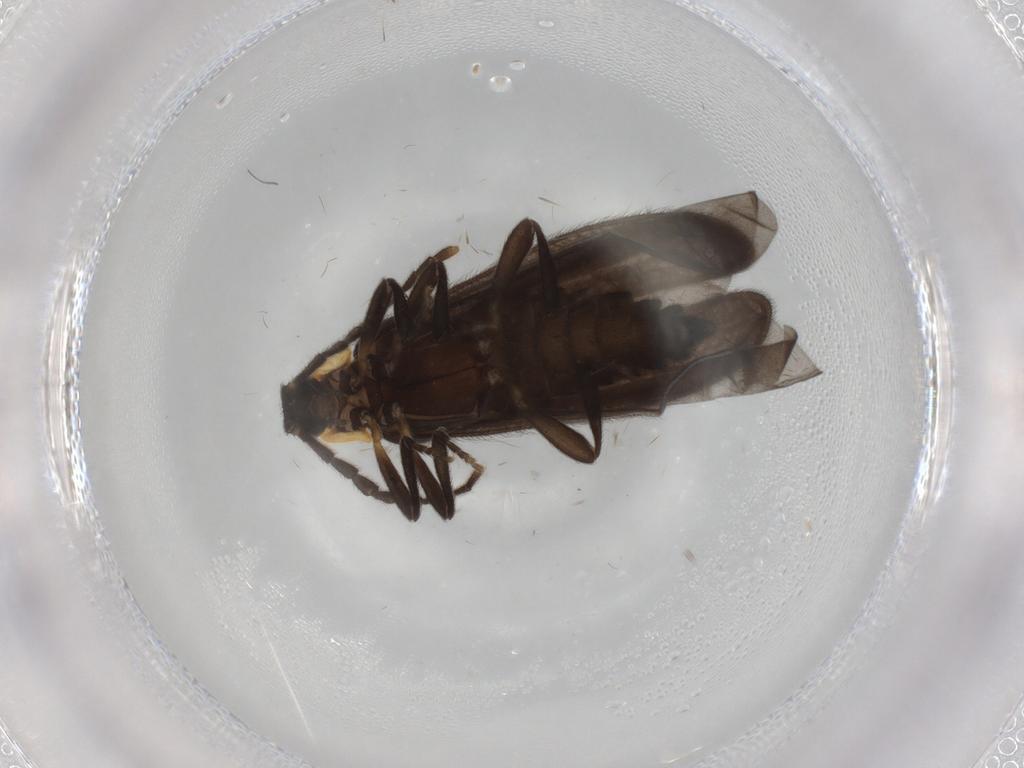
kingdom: Animalia
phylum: Arthropoda
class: Insecta
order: Coleoptera
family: Lycidae
